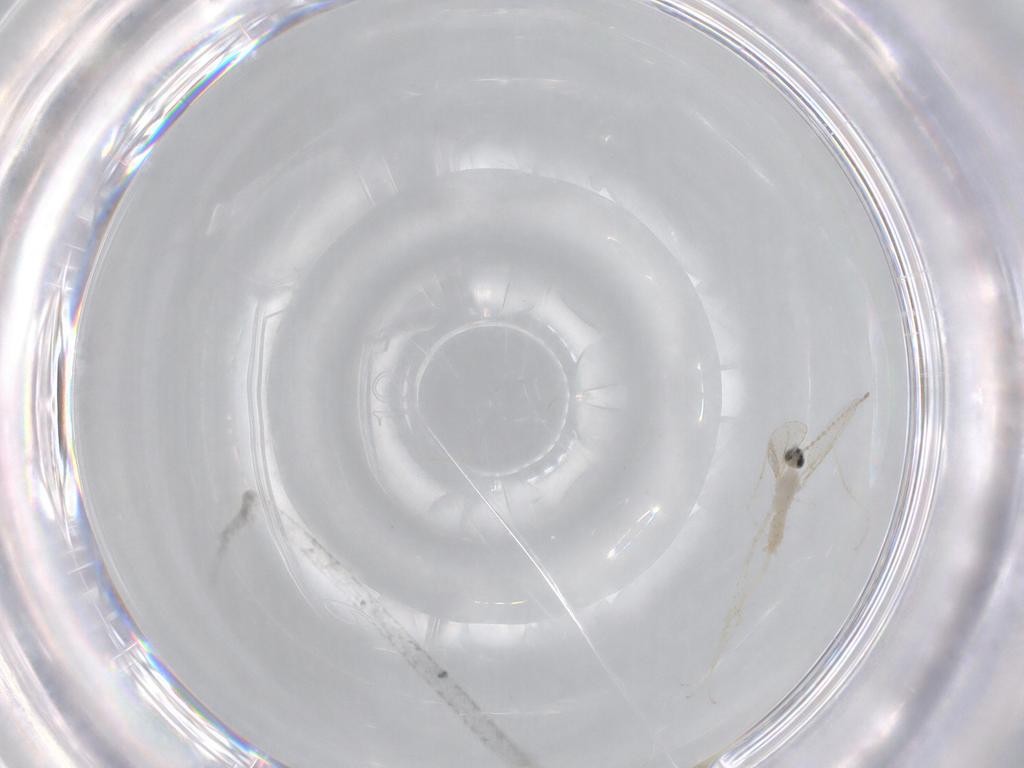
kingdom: Animalia
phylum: Arthropoda
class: Insecta
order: Diptera
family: Cecidomyiidae
